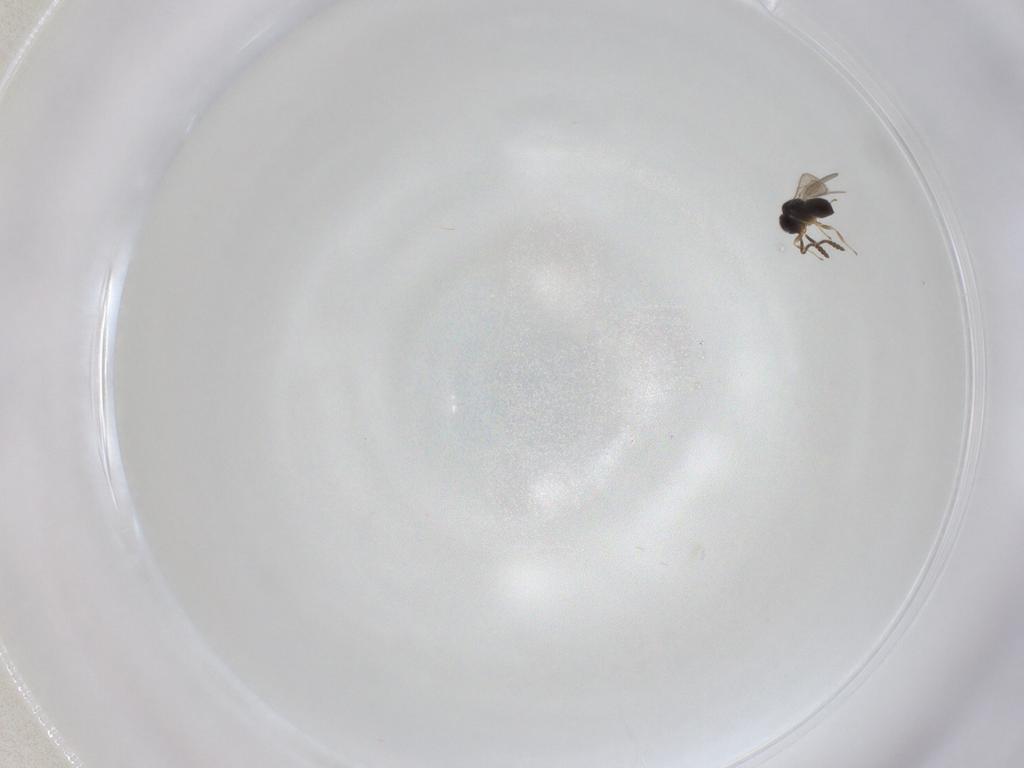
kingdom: Animalia
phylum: Arthropoda
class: Insecta
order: Hymenoptera
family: Scelionidae
